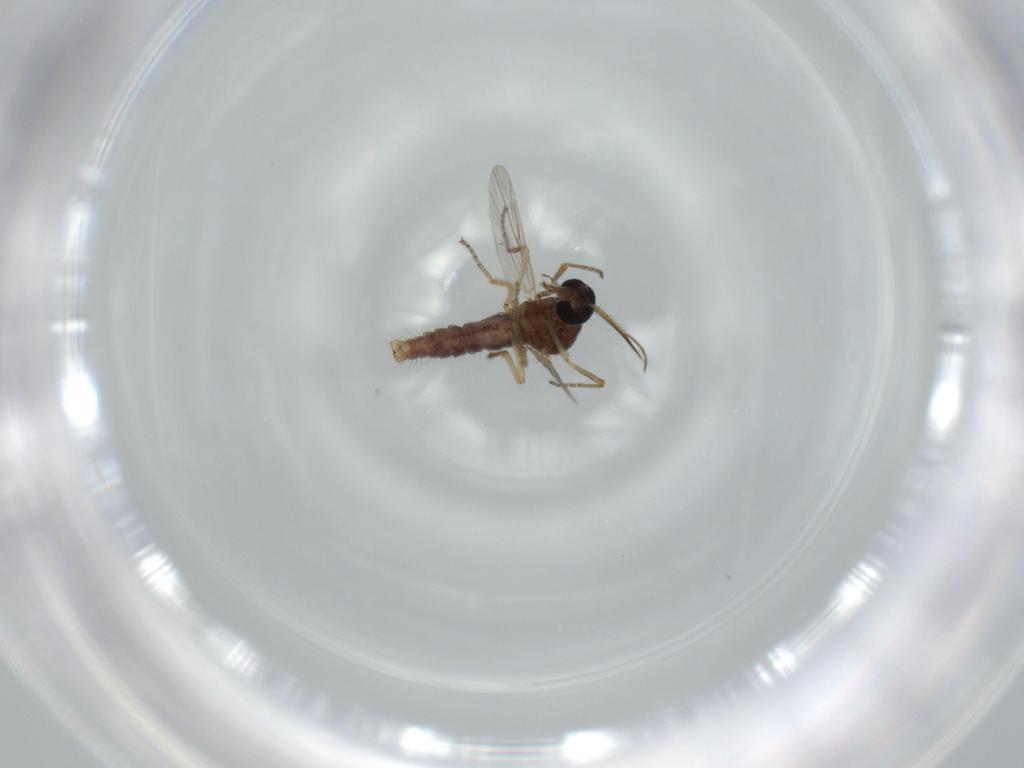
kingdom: Animalia
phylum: Arthropoda
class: Insecta
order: Diptera
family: Ceratopogonidae
